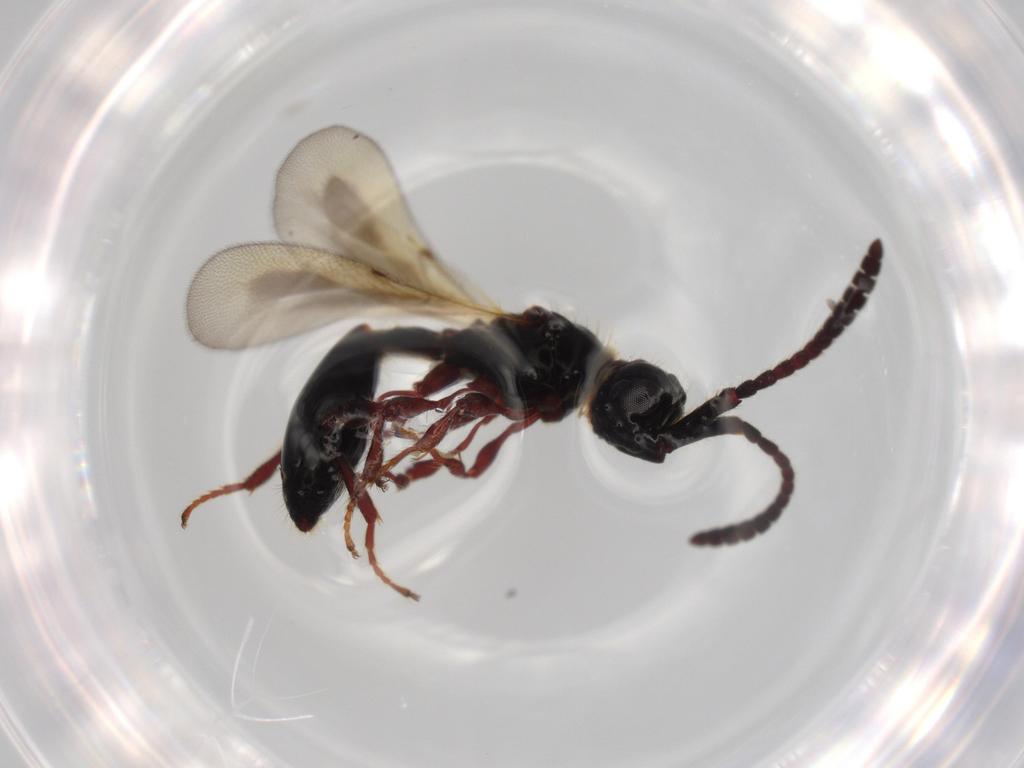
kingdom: Animalia
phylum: Arthropoda
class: Insecta
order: Hymenoptera
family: Diapriidae
